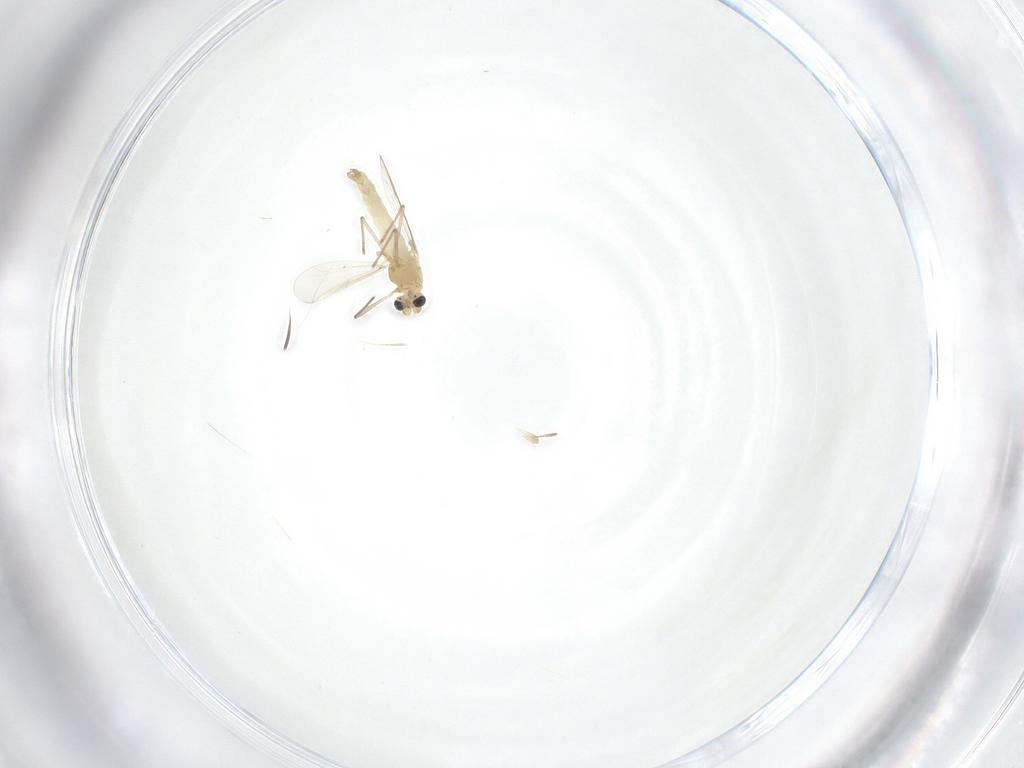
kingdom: Animalia
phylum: Arthropoda
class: Insecta
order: Diptera
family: Chironomidae
